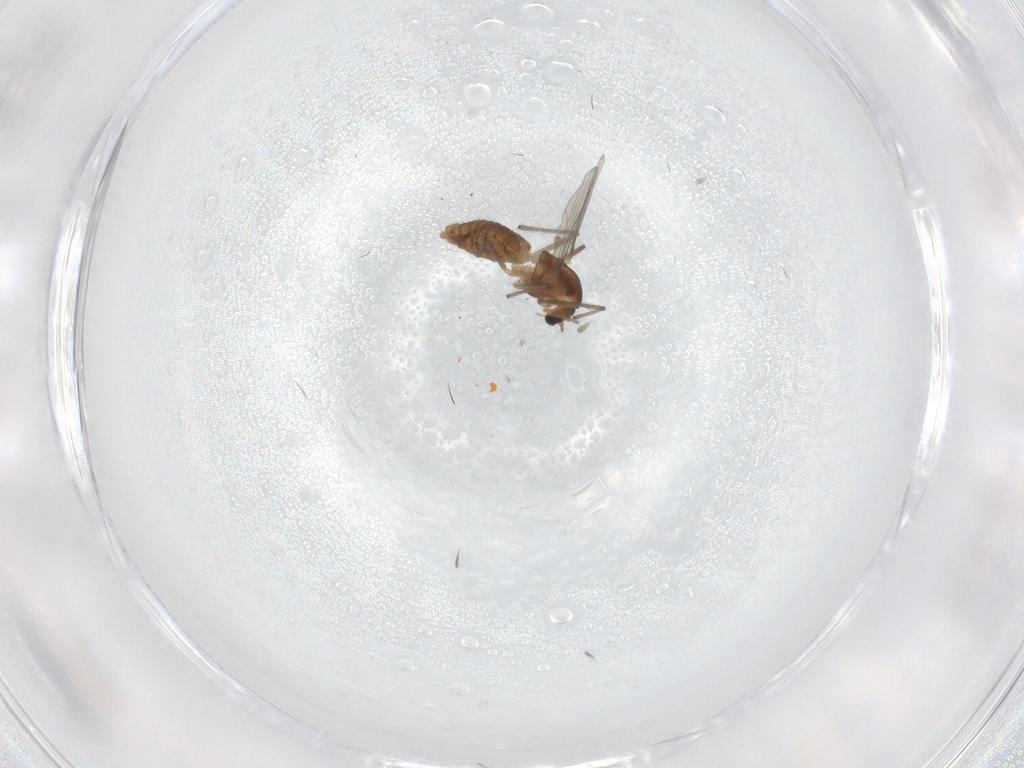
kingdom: Animalia
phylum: Arthropoda
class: Insecta
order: Diptera
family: Chironomidae
